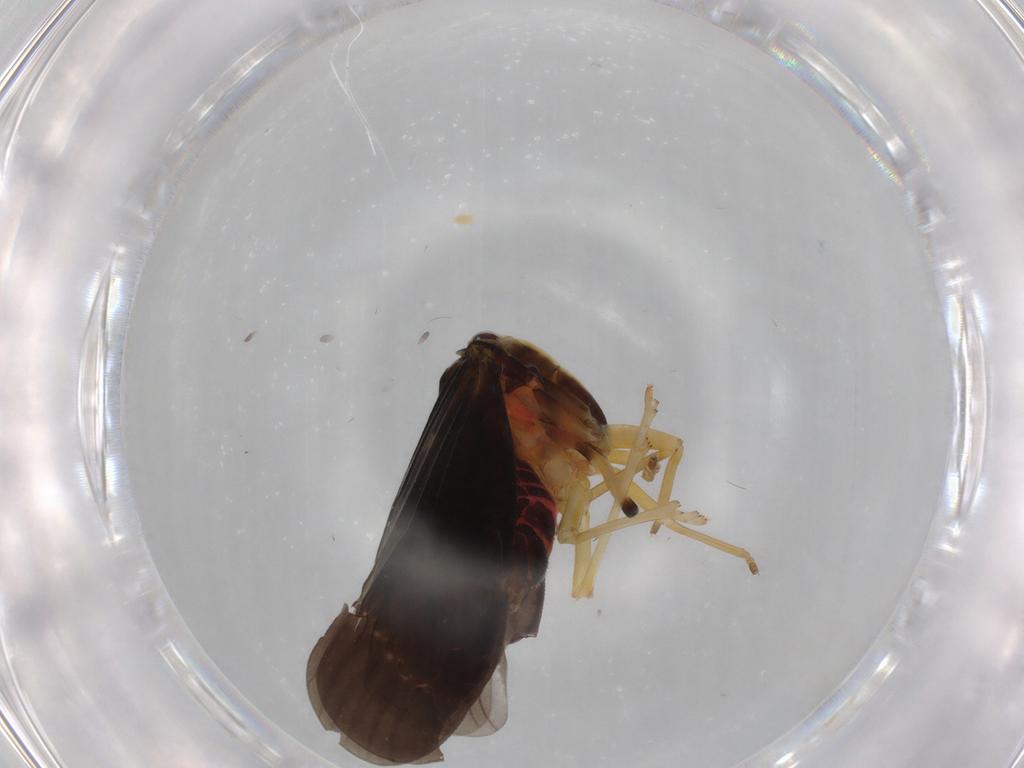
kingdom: Animalia
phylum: Arthropoda
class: Insecta
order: Hemiptera
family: Derbidae
